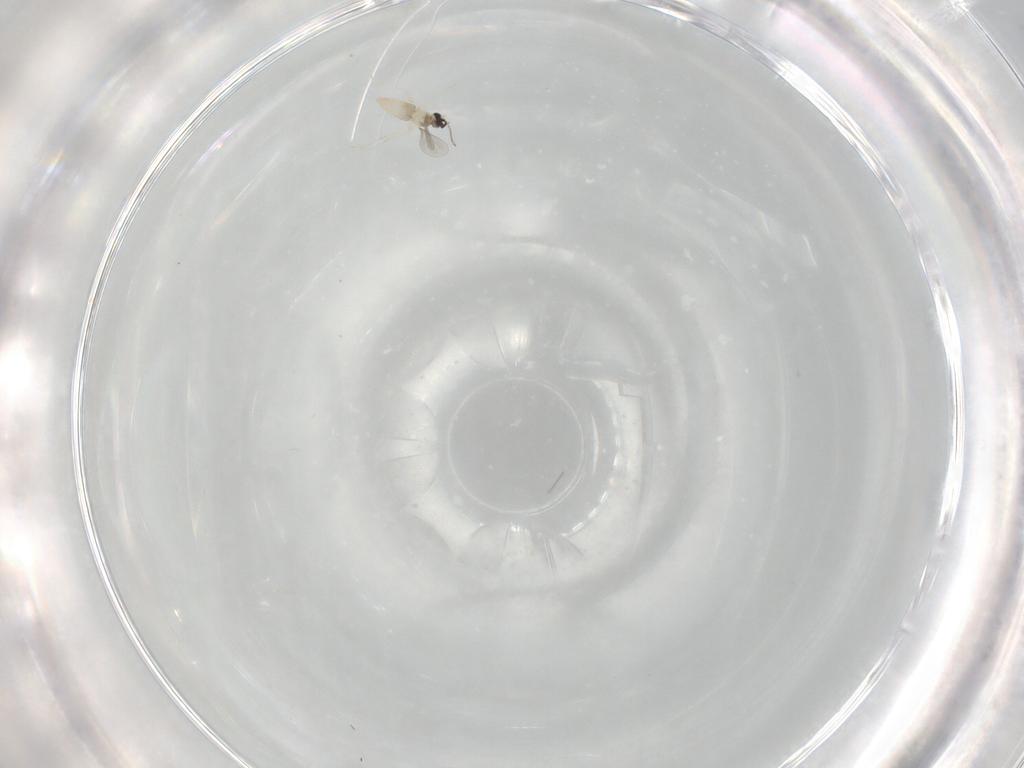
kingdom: Animalia
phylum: Arthropoda
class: Insecta
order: Diptera
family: Cecidomyiidae
